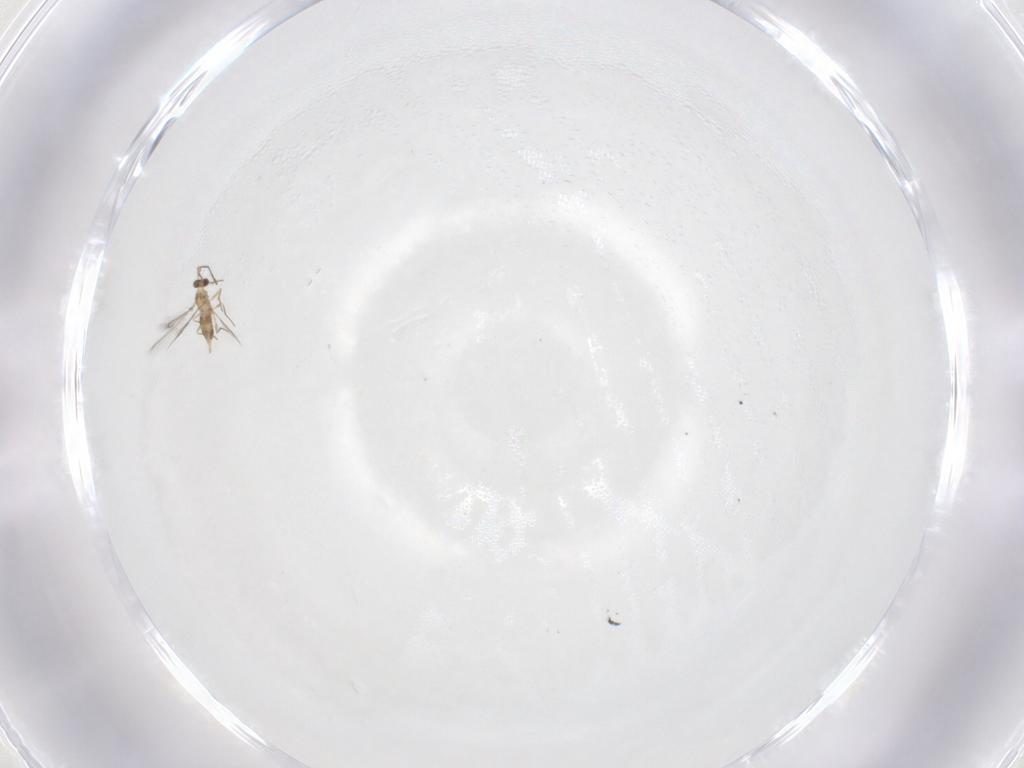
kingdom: Animalia
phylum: Arthropoda
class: Insecta
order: Hymenoptera
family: Mymaridae
